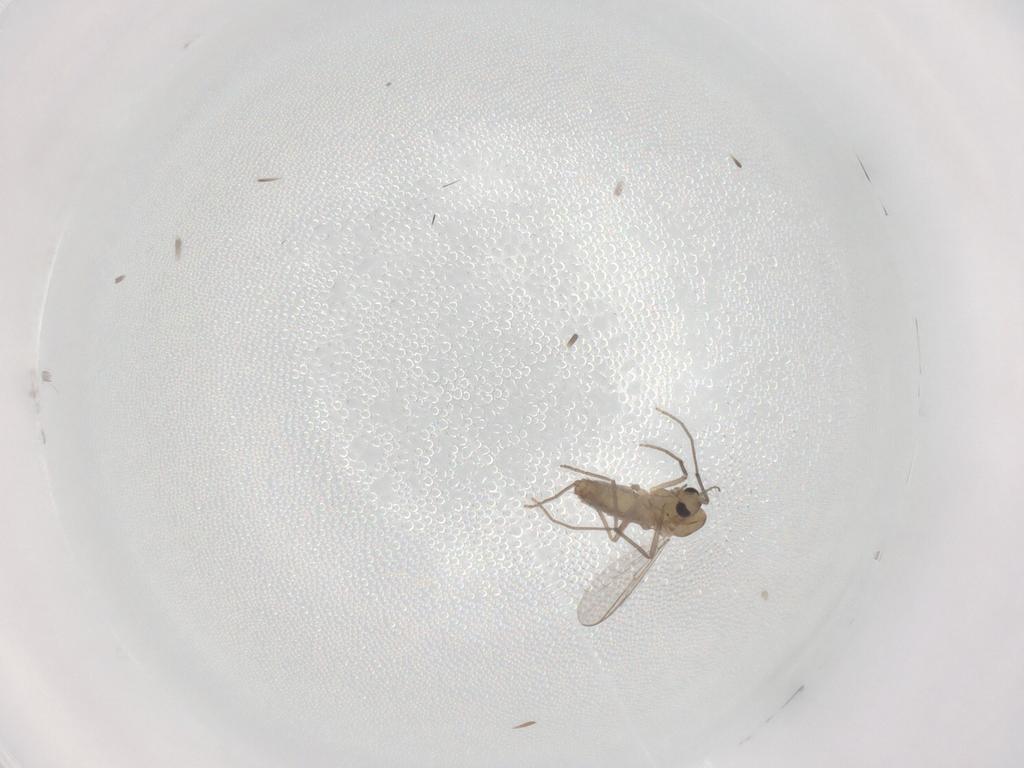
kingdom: Animalia
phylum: Arthropoda
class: Insecta
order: Diptera
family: Chironomidae
